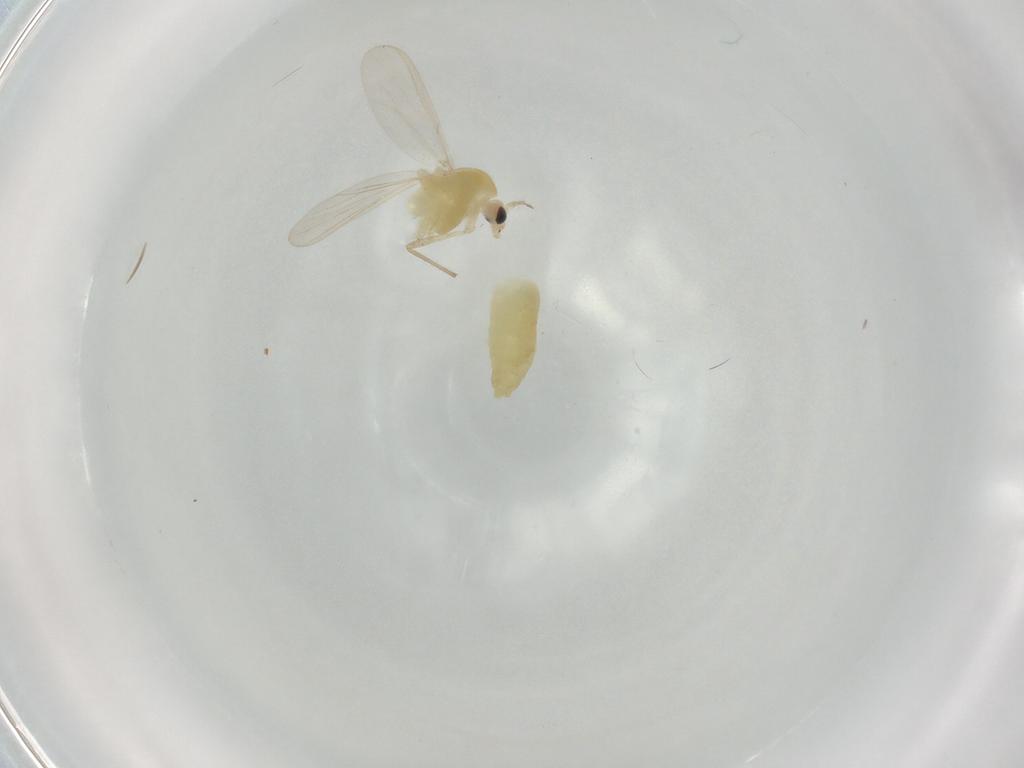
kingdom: Animalia
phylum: Arthropoda
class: Insecta
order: Diptera
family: Chironomidae
